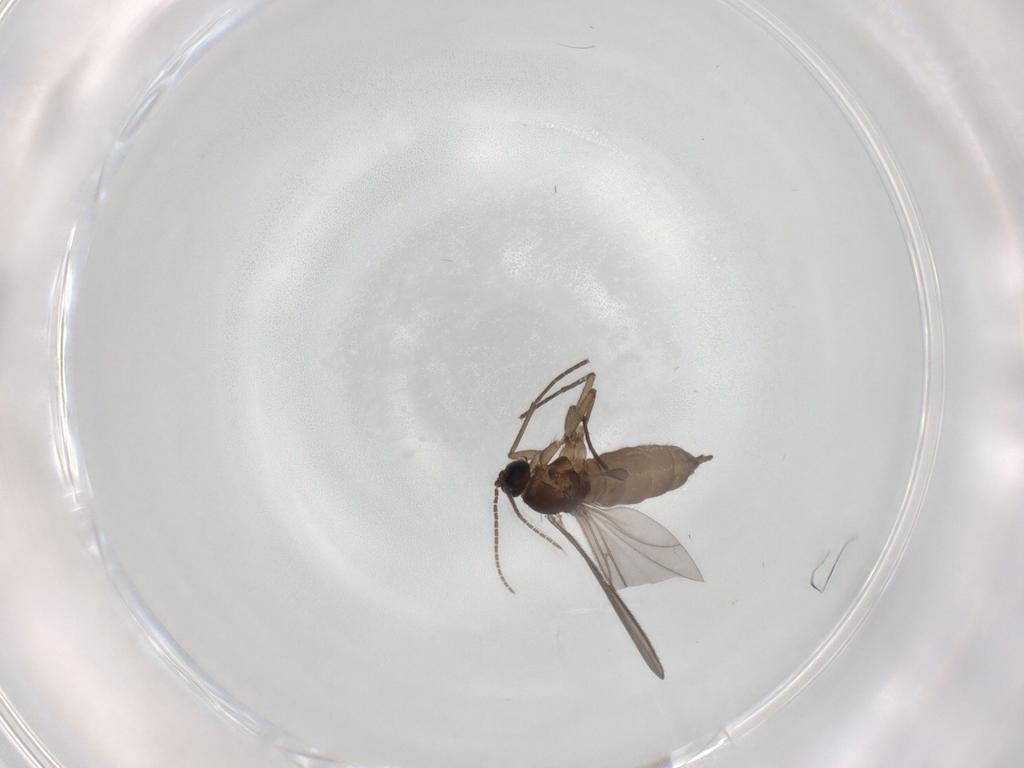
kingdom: Animalia
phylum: Arthropoda
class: Insecta
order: Diptera
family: Sciaridae
